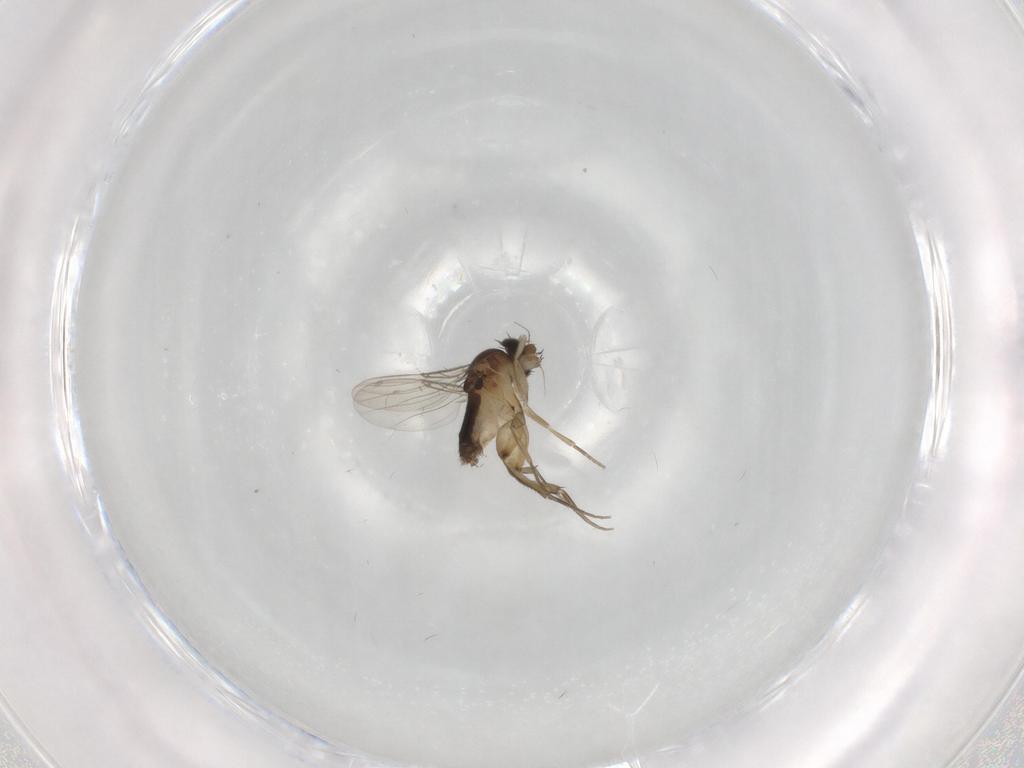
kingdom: Animalia
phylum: Arthropoda
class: Insecta
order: Diptera
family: Phoridae
